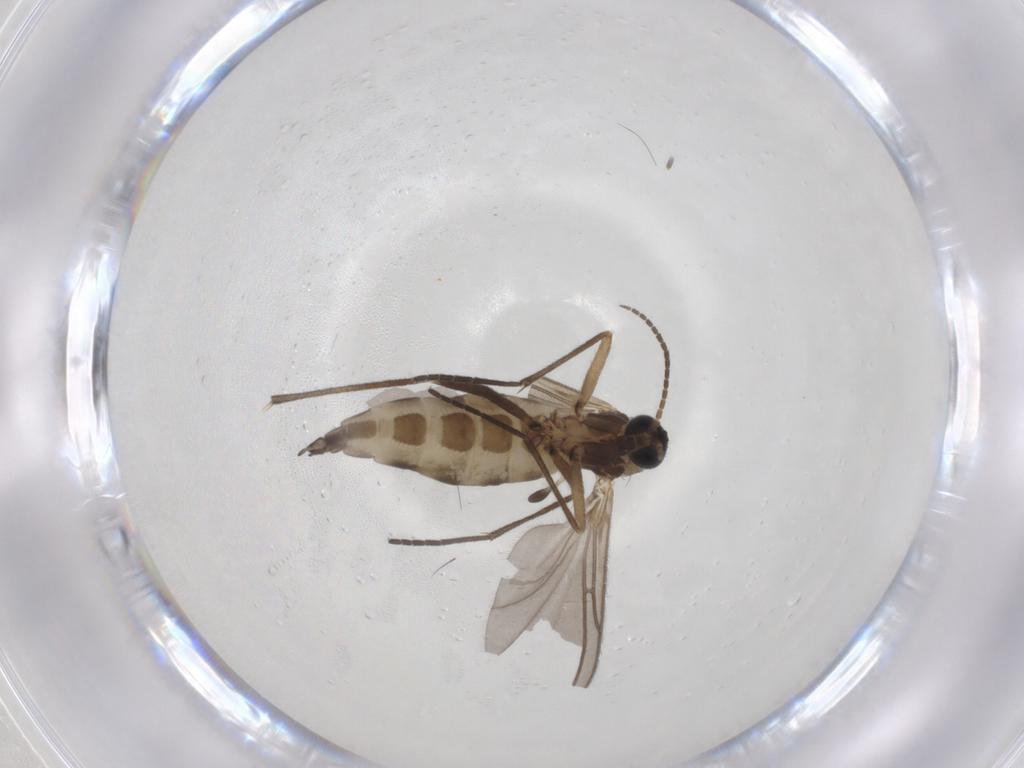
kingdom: Animalia
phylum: Arthropoda
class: Insecta
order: Diptera
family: Sciaridae
